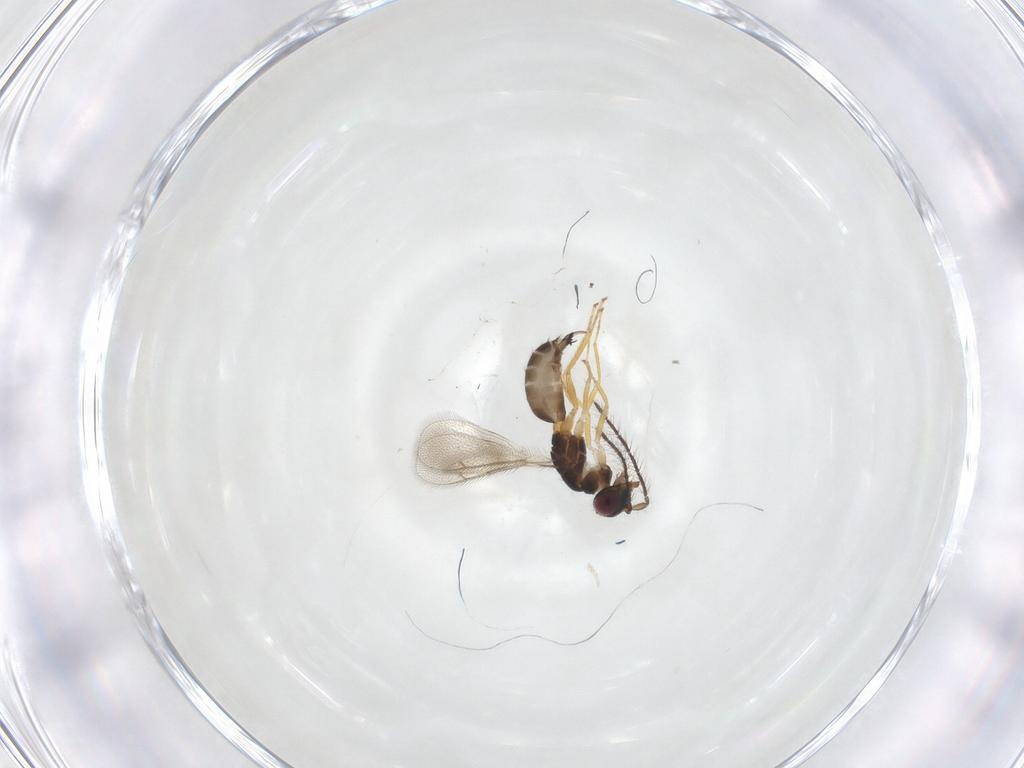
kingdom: Animalia
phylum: Arthropoda
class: Insecta
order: Hymenoptera
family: Eulophidae
